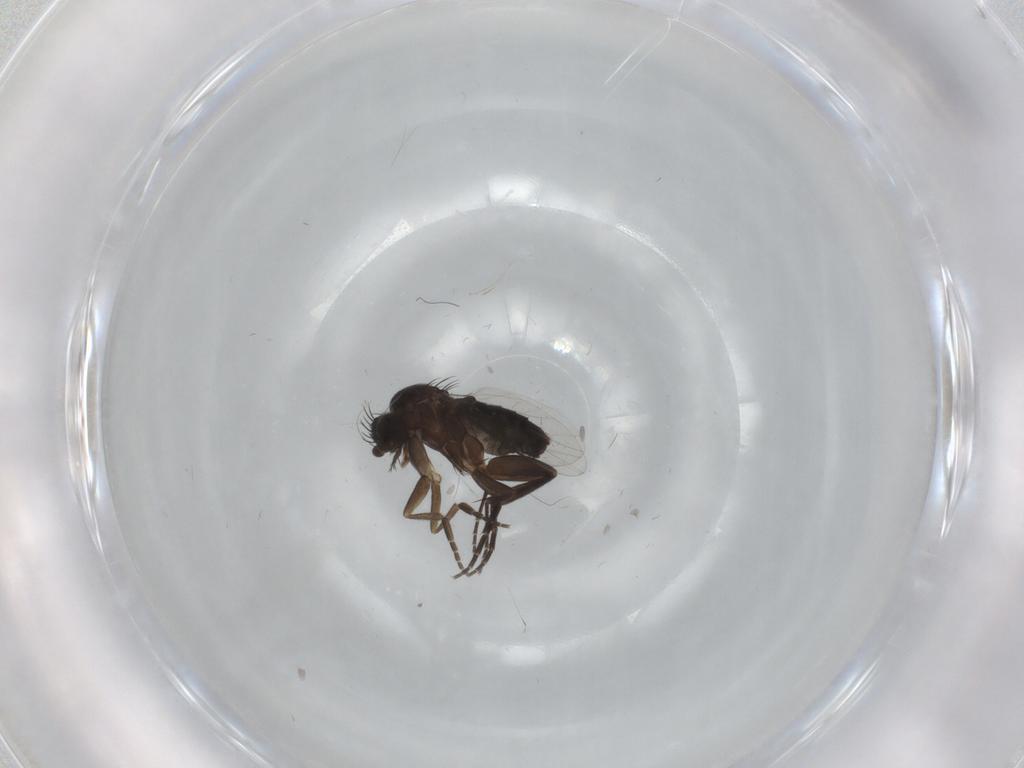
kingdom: Animalia
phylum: Arthropoda
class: Insecta
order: Diptera
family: Phoridae
